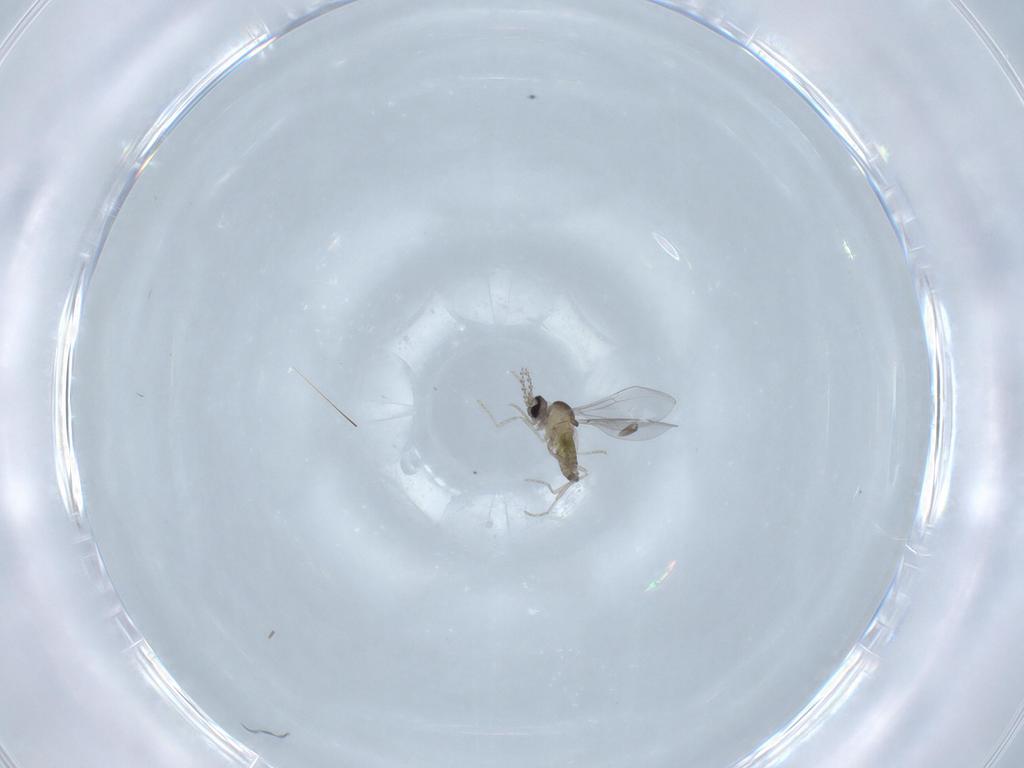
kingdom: Animalia
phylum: Arthropoda
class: Insecta
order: Diptera
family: Cecidomyiidae
